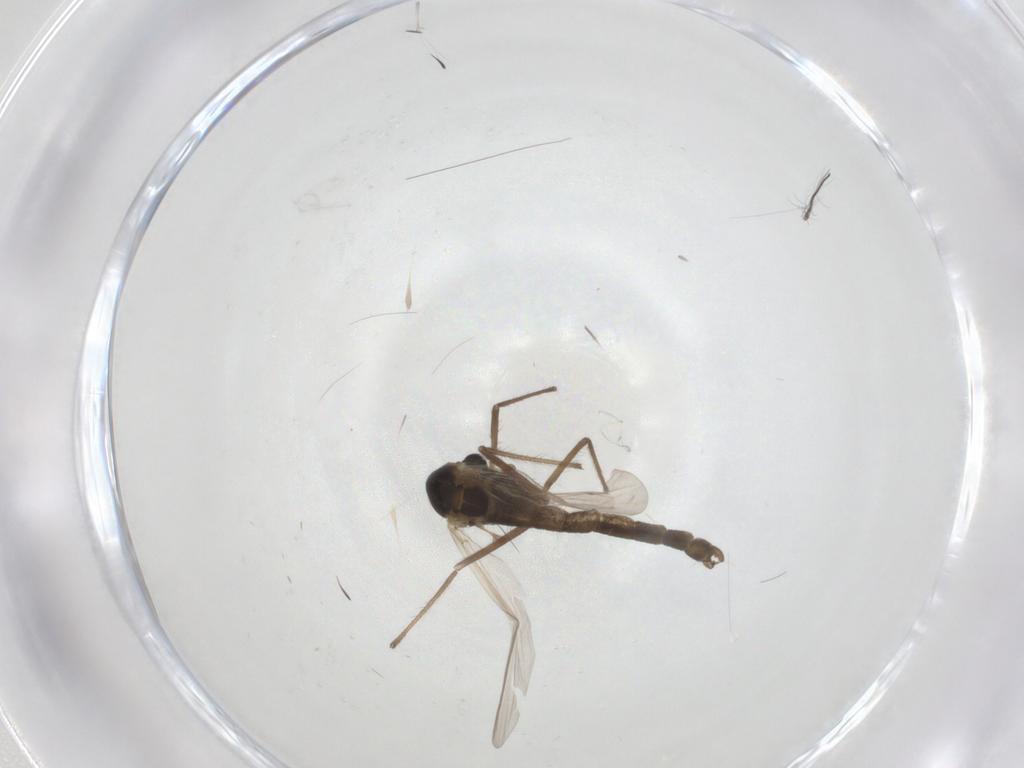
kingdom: Animalia
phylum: Arthropoda
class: Insecta
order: Diptera
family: Chironomidae
